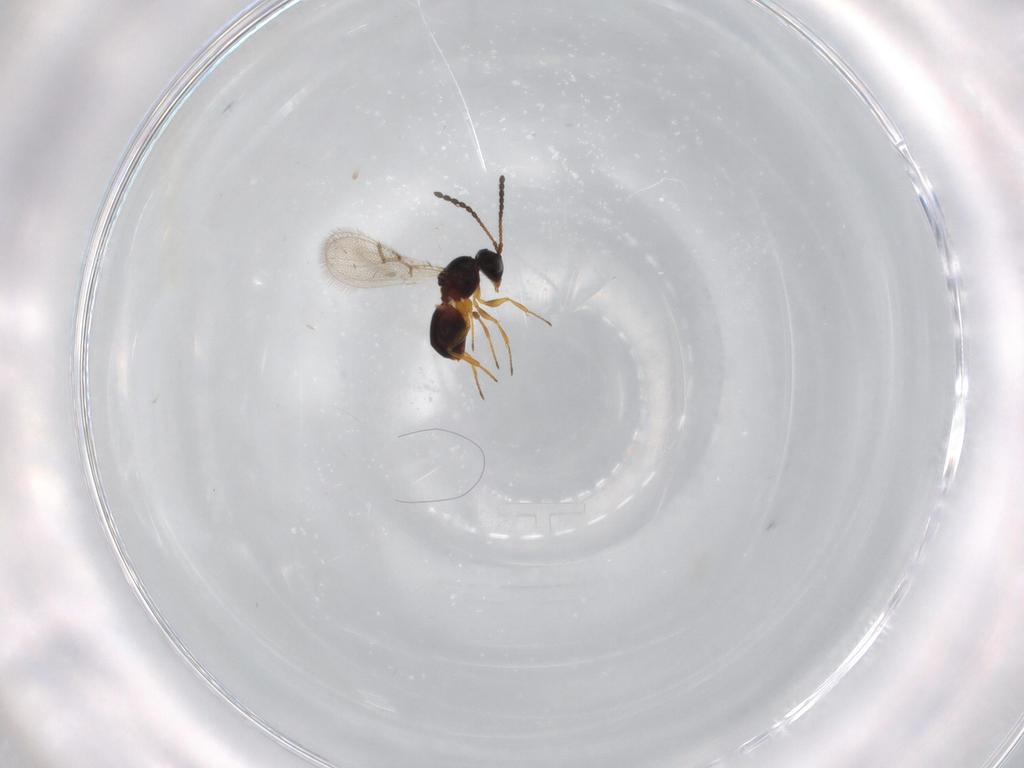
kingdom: Animalia
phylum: Arthropoda
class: Insecta
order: Hymenoptera
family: Figitidae
